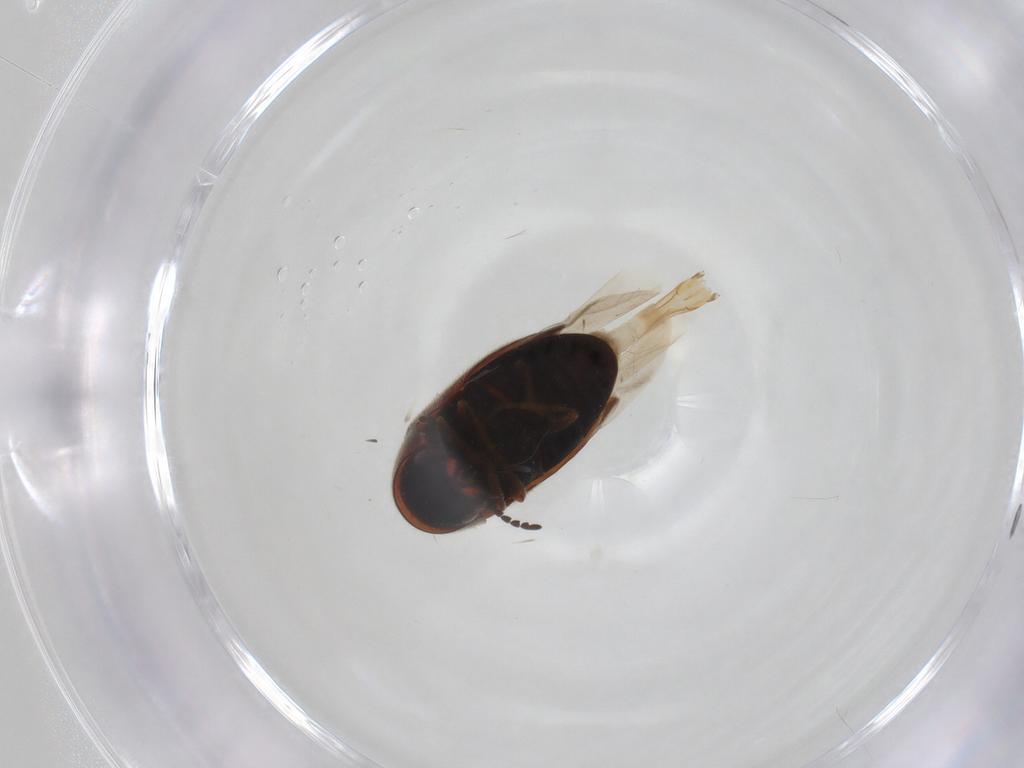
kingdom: Animalia
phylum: Arthropoda
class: Insecta
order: Coleoptera
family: Ptinidae
